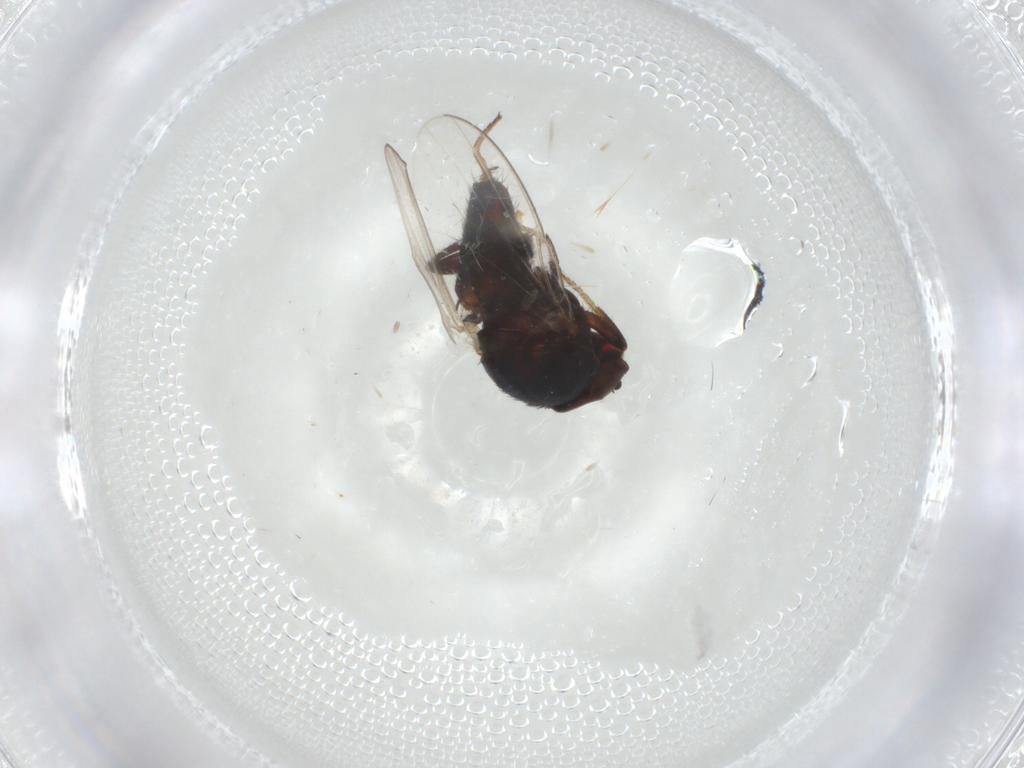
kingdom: Animalia
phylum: Arthropoda
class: Insecta
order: Diptera
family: Milichiidae
